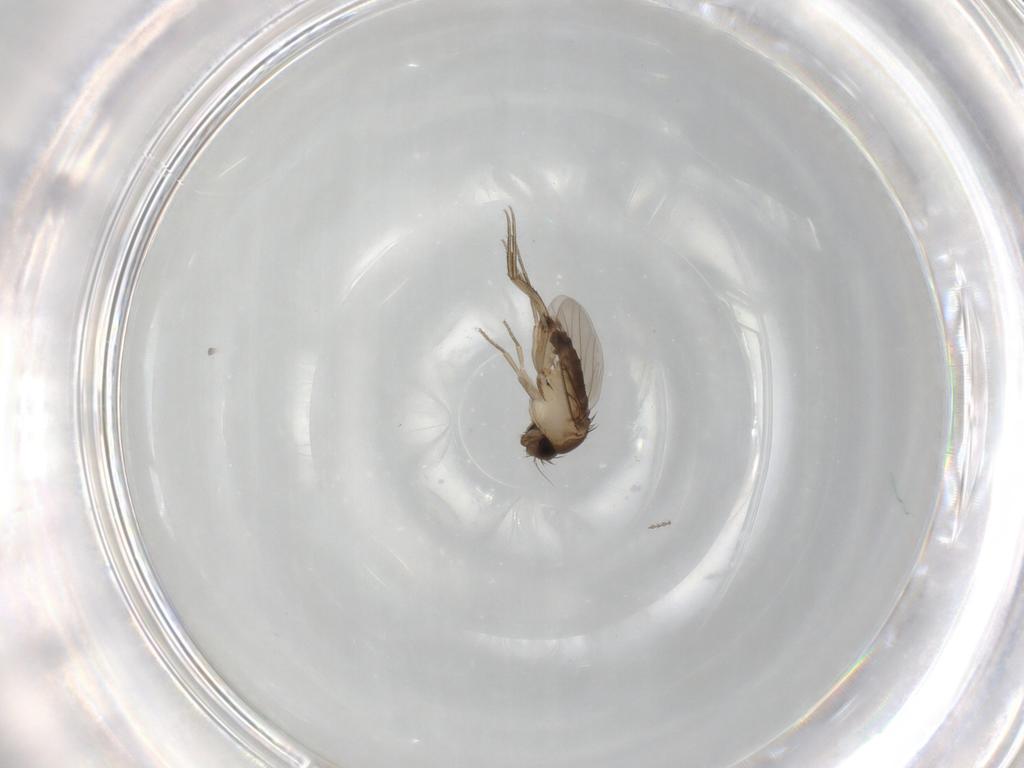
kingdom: Animalia
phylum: Arthropoda
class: Insecta
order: Diptera
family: Phoridae
